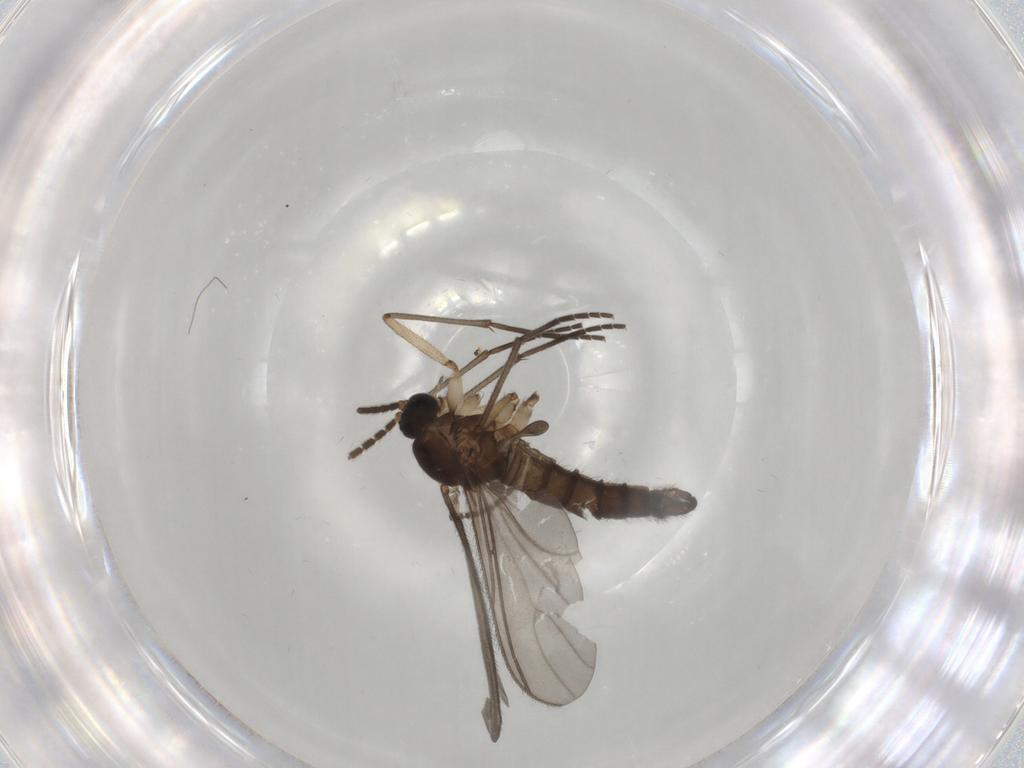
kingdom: Animalia
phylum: Arthropoda
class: Insecta
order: Diptera
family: Sciaridae
